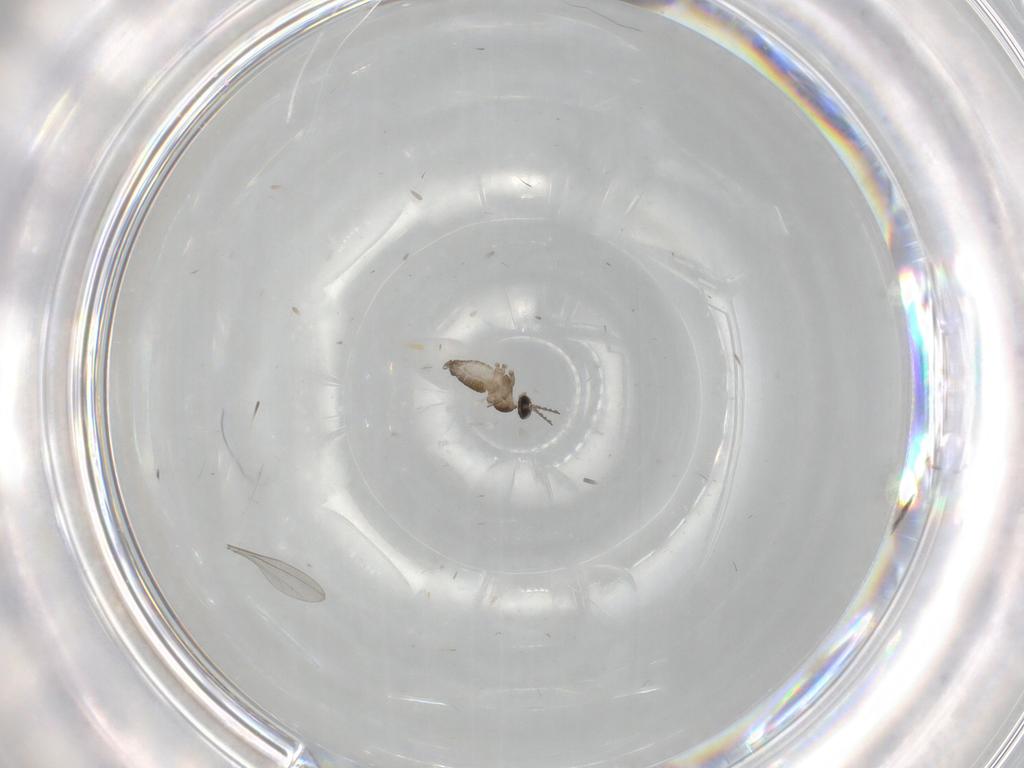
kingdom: Animalia
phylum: Arthropoda
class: Insecta
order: Diptera
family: Cecidomyiidae
